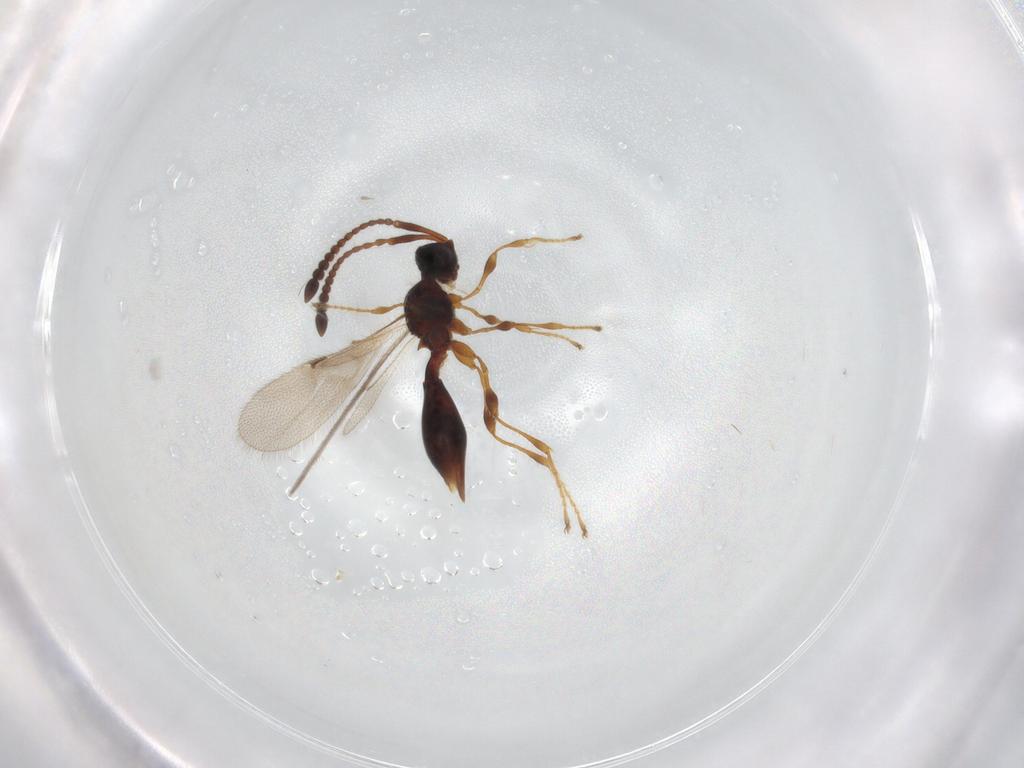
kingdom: Animalia
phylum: Arthropoda
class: Insecta
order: Hymenoptera
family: Diapriidae
